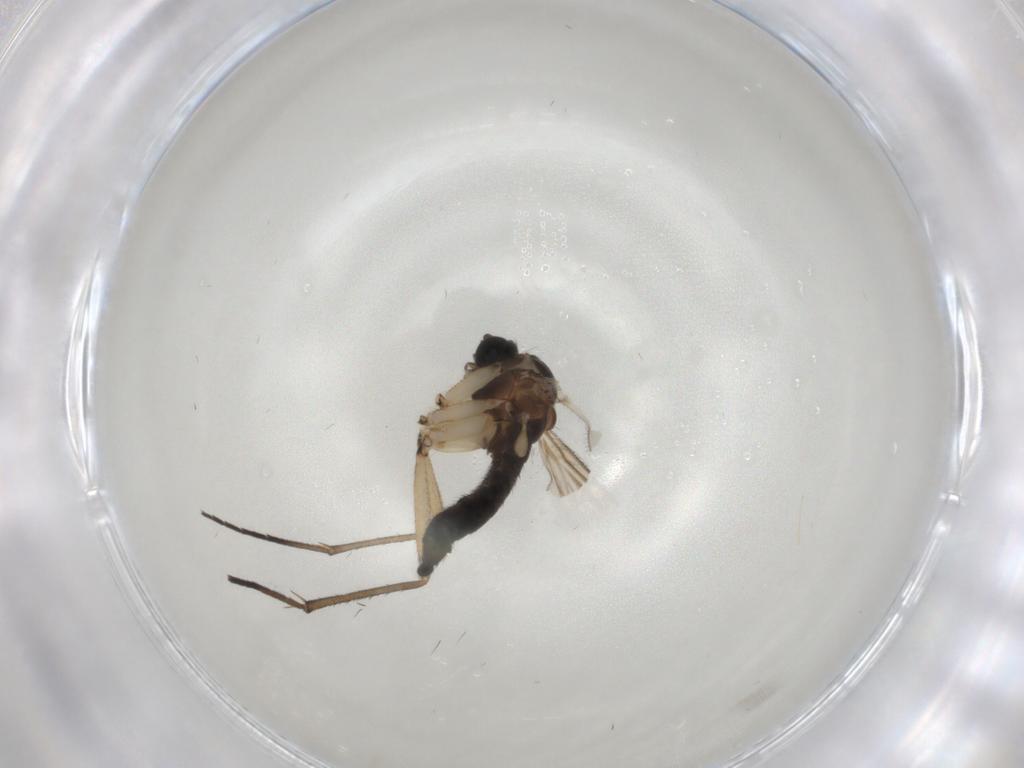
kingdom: Animalia
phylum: Arthropoda
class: Insecta
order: Diptera
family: Sciaridae
